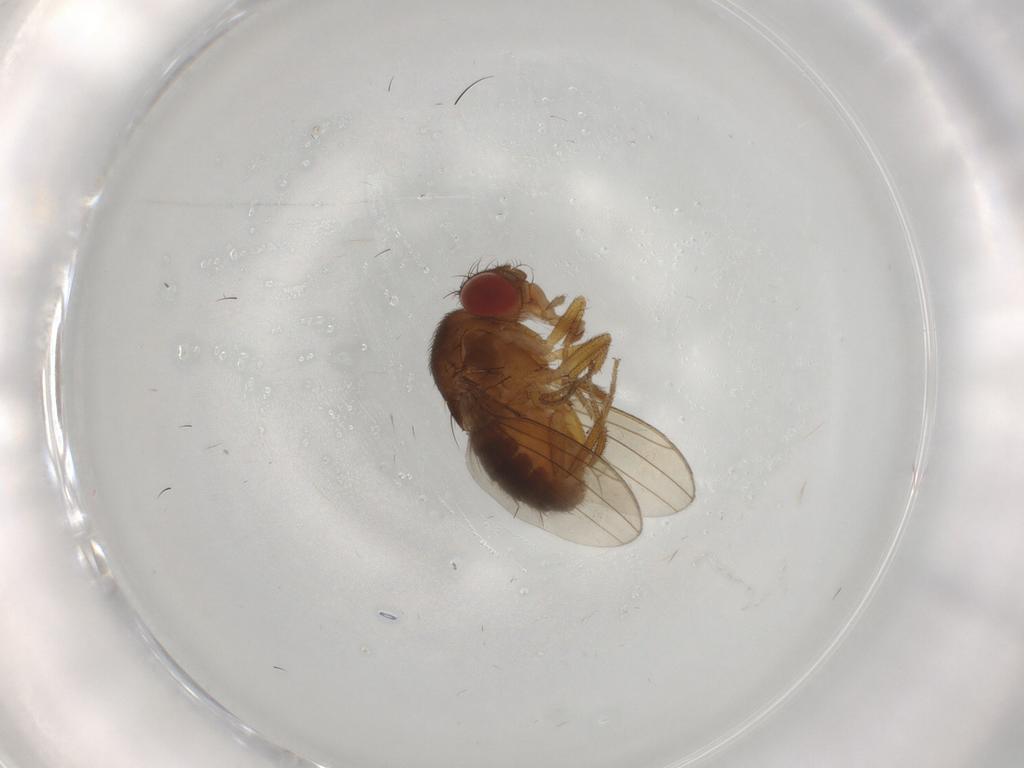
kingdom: Animalia
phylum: Arthropoda
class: Insecta
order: Diptera
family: Drosophilidae
